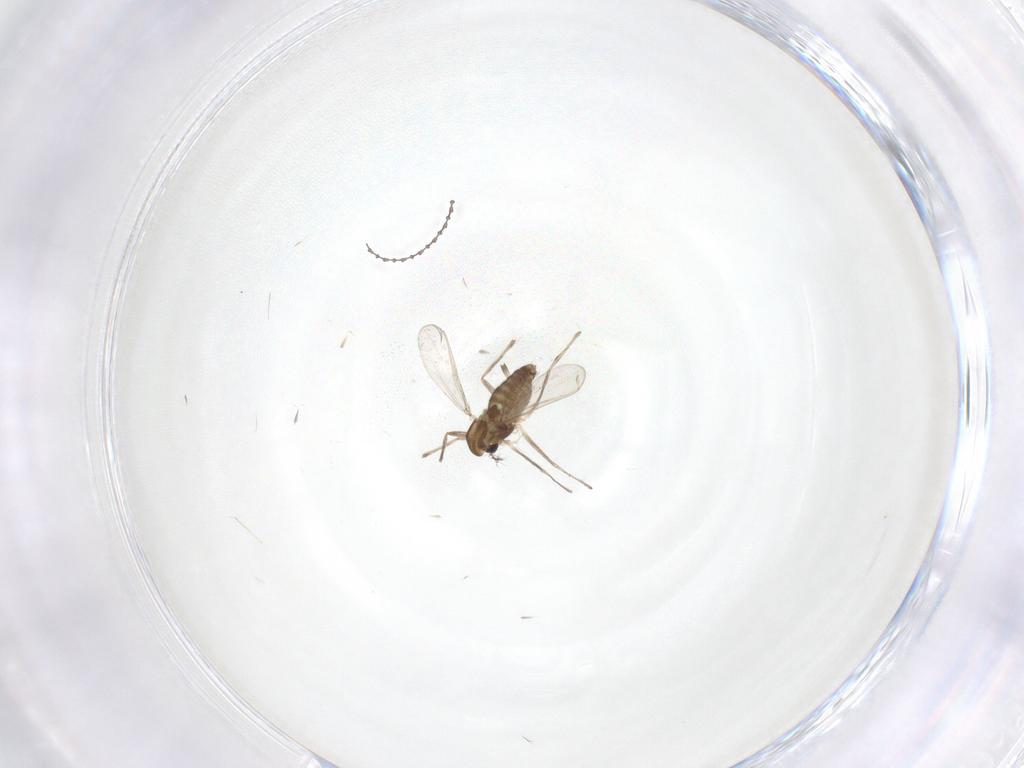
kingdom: Animalia
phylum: Arthropoda
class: Insecta
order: Diptera
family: Chironomidae
